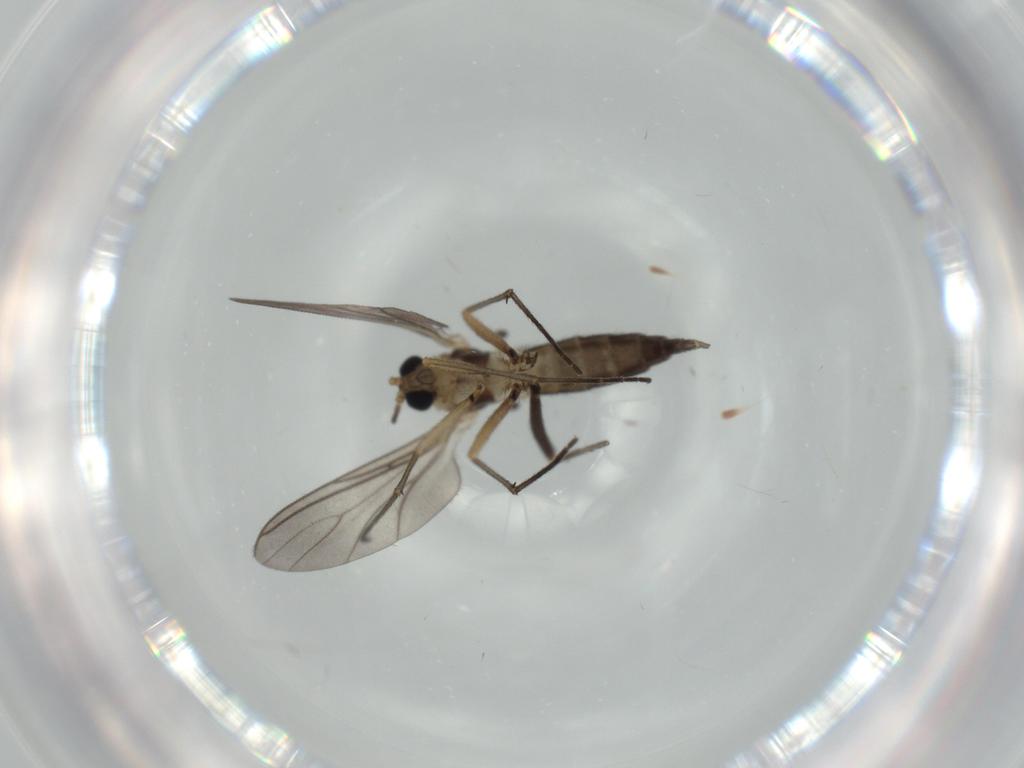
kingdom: Animalia
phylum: Arthropoda
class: Insecta
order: Diptera
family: Sciaridae
